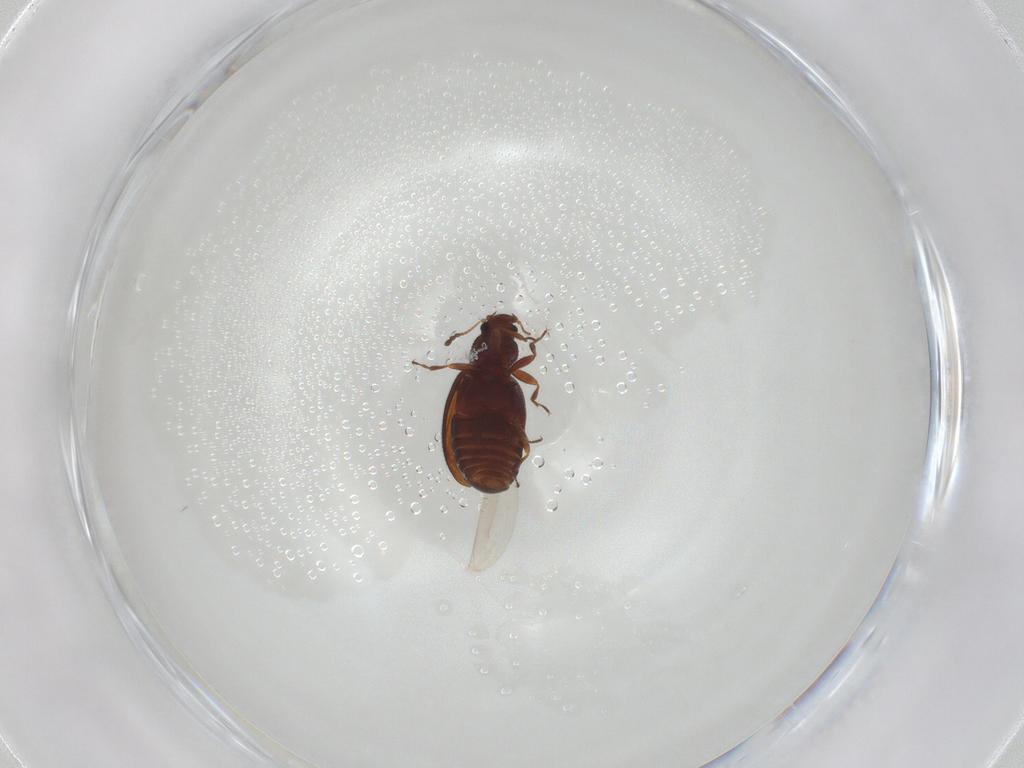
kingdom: Animalia
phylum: Arthropoda
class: Insecta
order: Coleoptera
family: Latridiidae
